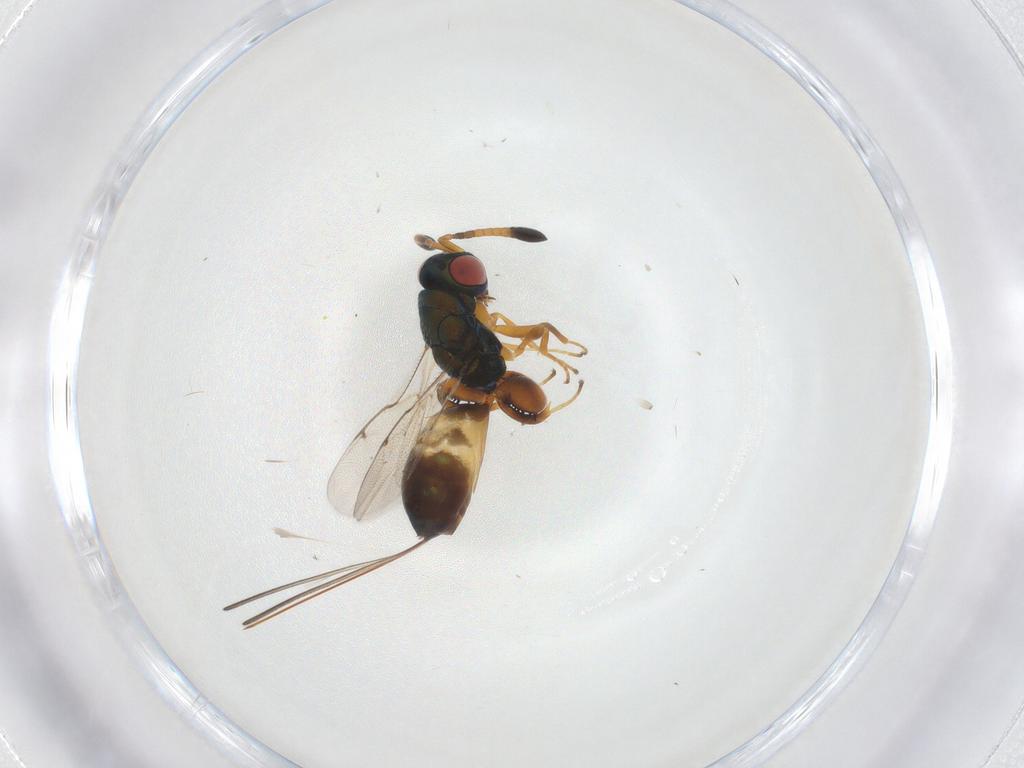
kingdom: Animalia
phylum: Arthropoda
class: Insecta
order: Hymenoptera
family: Torymidae
